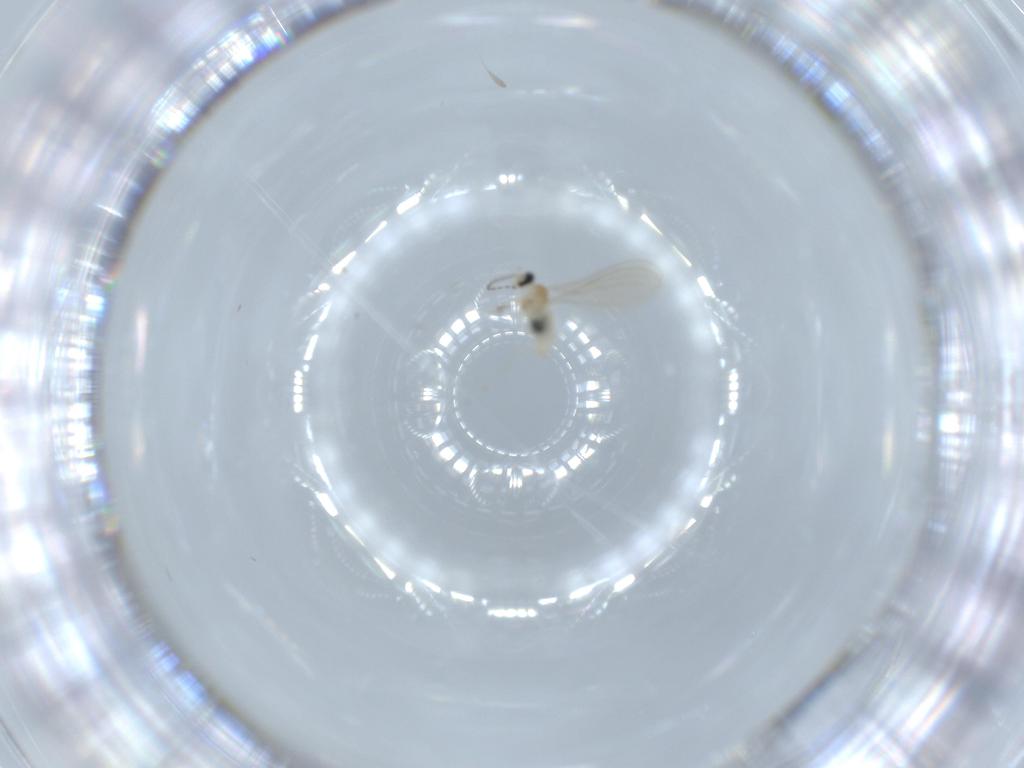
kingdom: Animalia
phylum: Arthropoda
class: Insecta
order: Diptera
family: Cecidomyiidae
